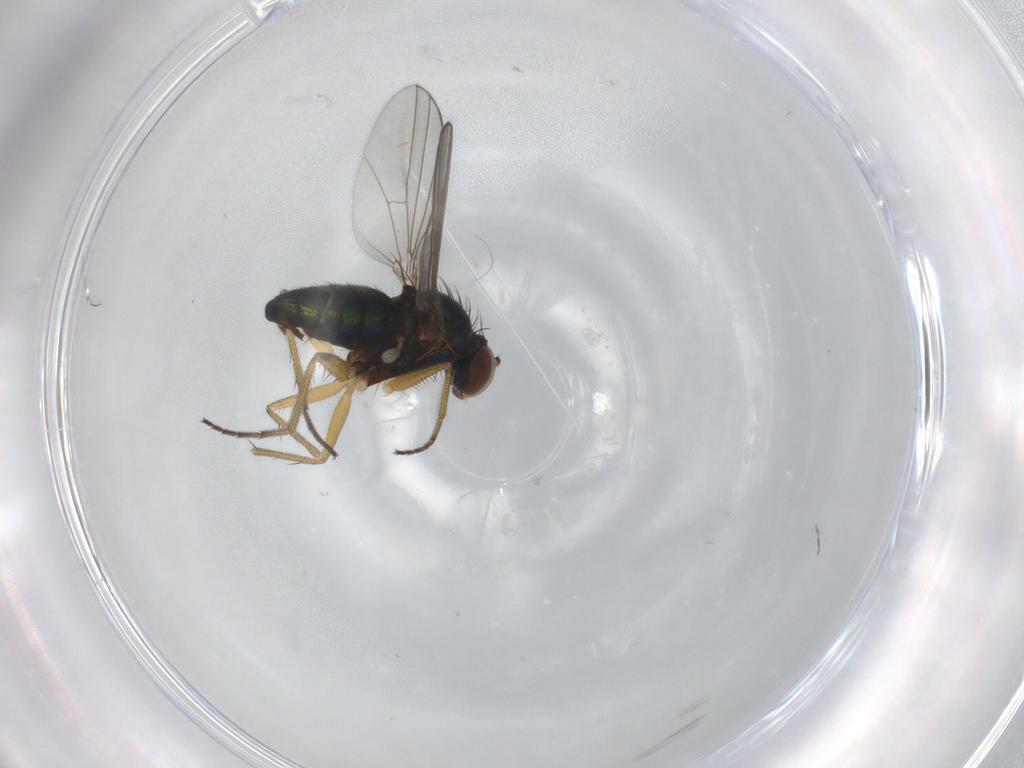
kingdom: Animalia
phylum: Arthropoda
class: Insecta
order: Diptera
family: Dolichopodidae
